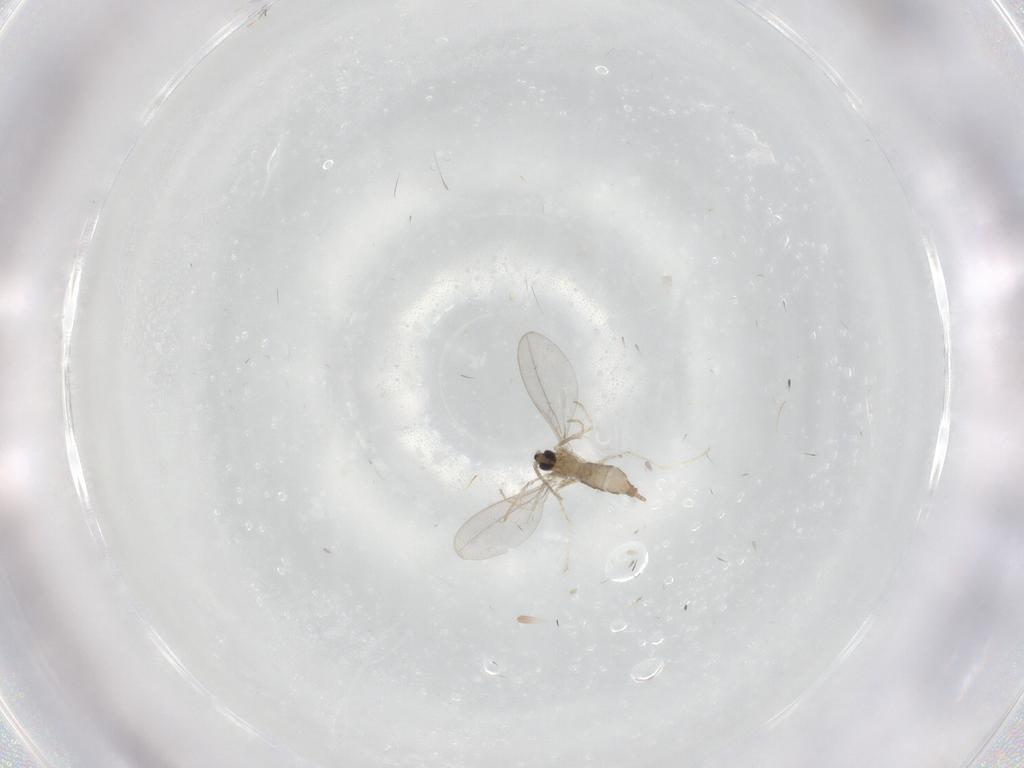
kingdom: Animalia
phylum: Arthropoda
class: Insecta
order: Diptera
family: Cecidomyiidae
